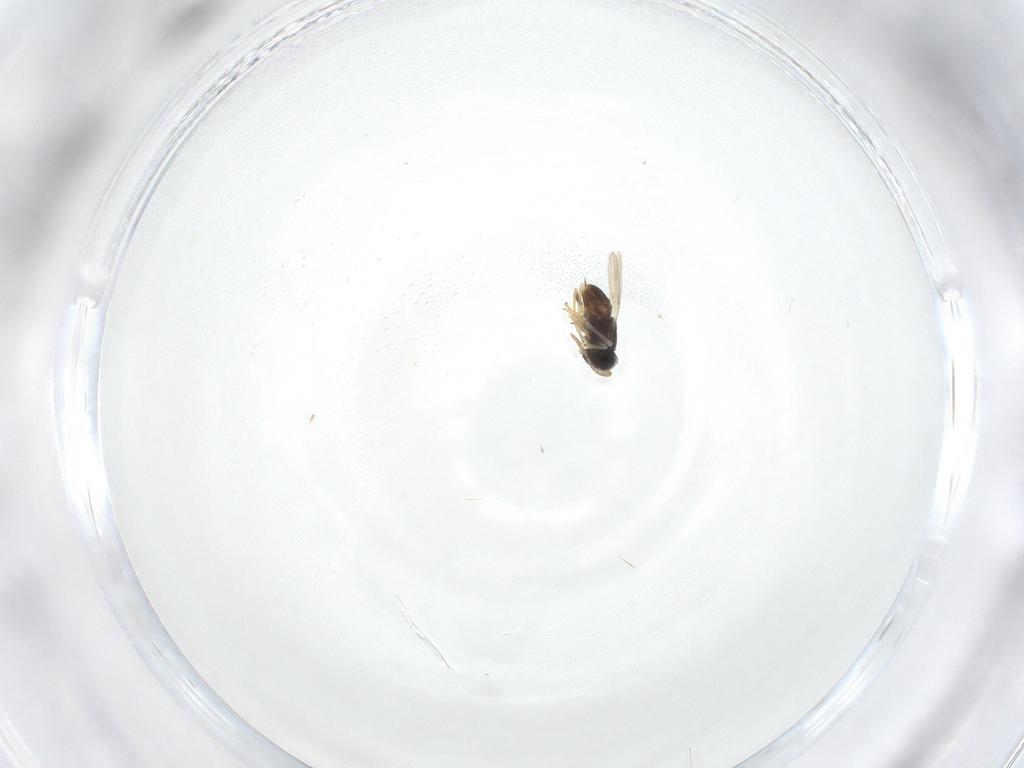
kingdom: Animalia
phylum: Arthropoda
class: Insecta
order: Hymenoptera
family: Encyrtidae
